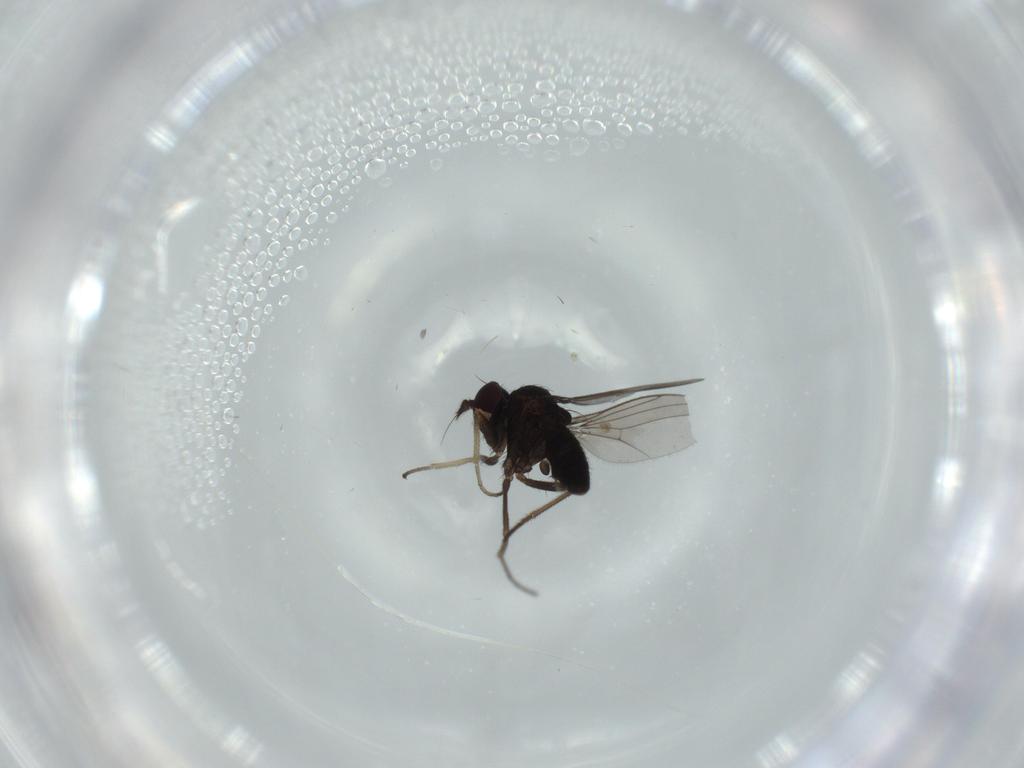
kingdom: Animalia
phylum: Arthropoda
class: Insecta
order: Diptera
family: Dolichopodidae
